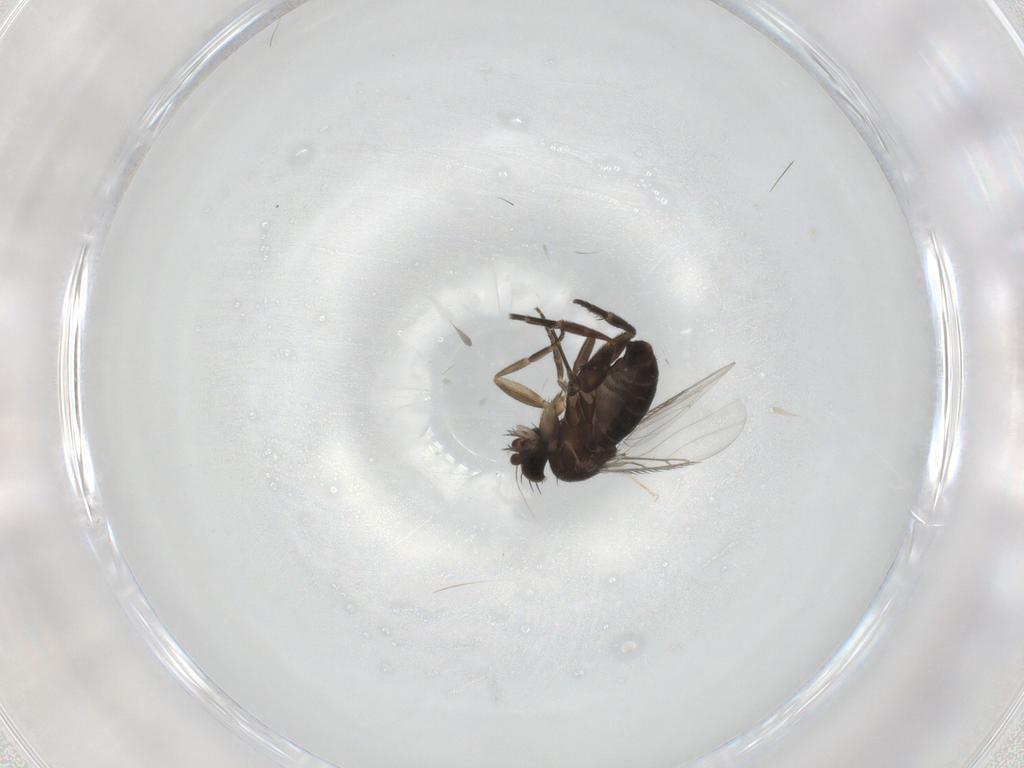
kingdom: Animalia
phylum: Arthropoda
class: Insecta
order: Diptera
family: Phoridae
